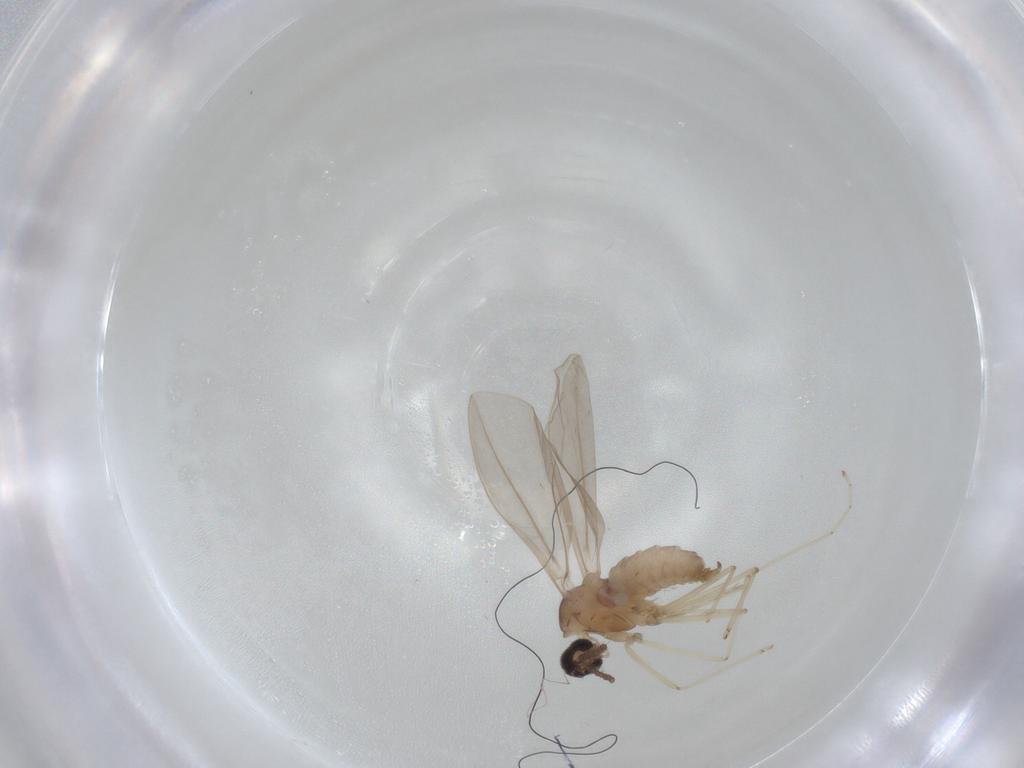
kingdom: Animalia
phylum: Arthropoda
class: Insecta
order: Diptera
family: Cecidomyiidae
